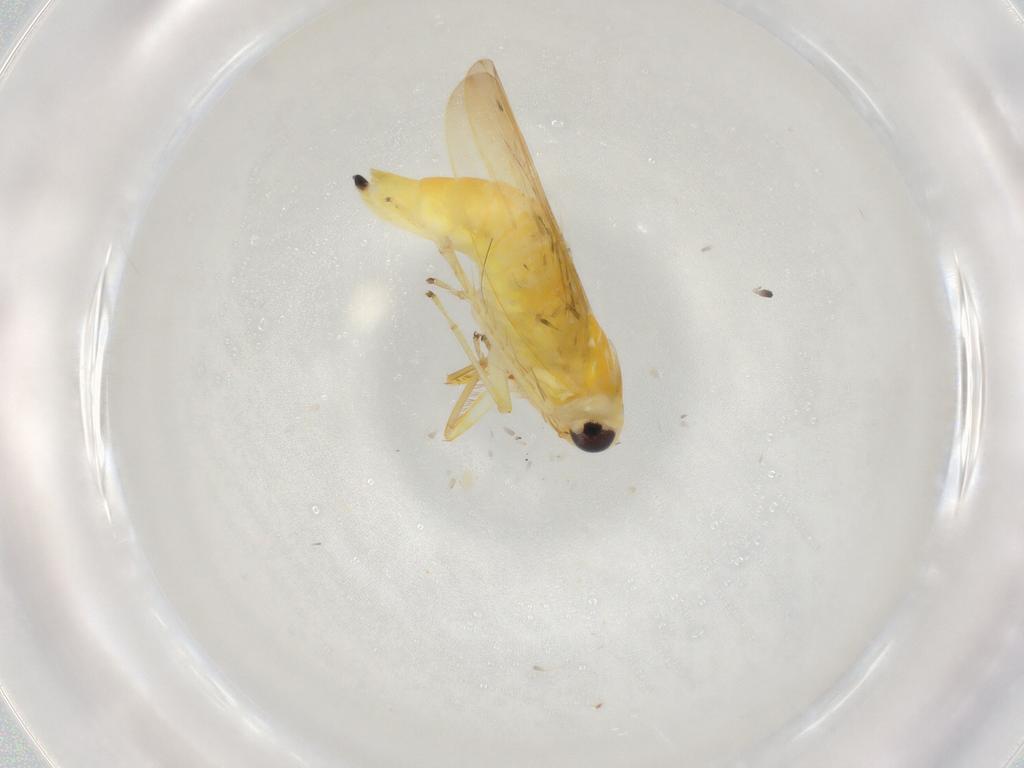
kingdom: Animalia
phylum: Arthropoda
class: Insecta
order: Hemiptera
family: Cicadellidae
